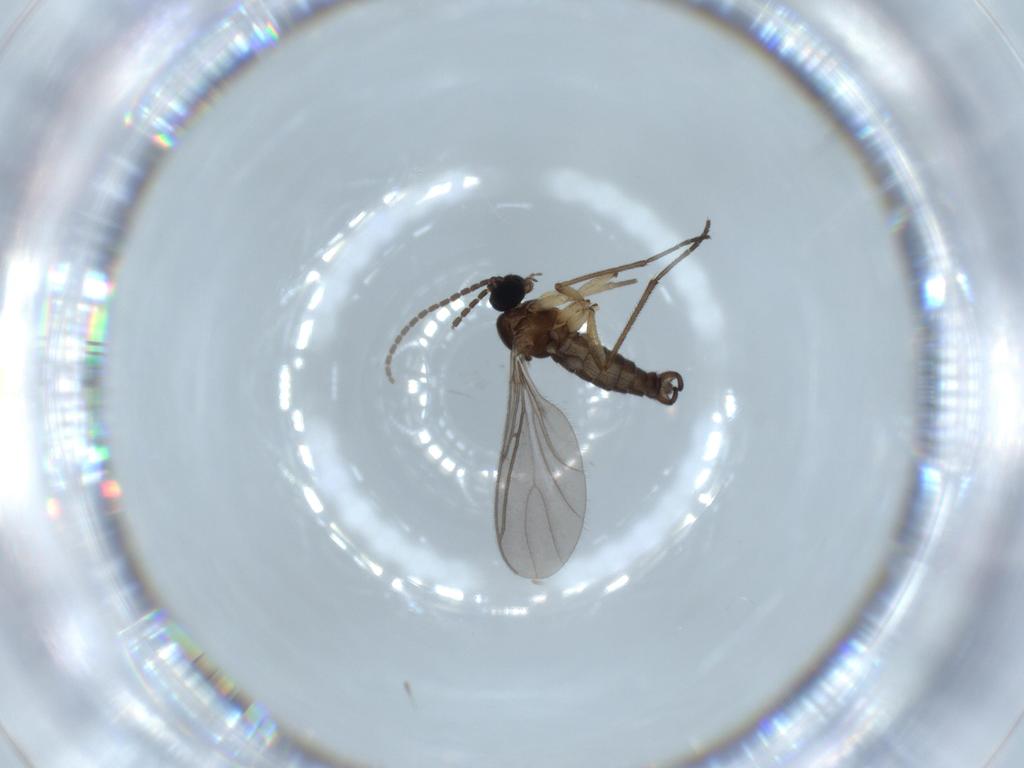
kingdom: Animalia
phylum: Arthropoda
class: Insecta
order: Diptera
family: Sciaridae
